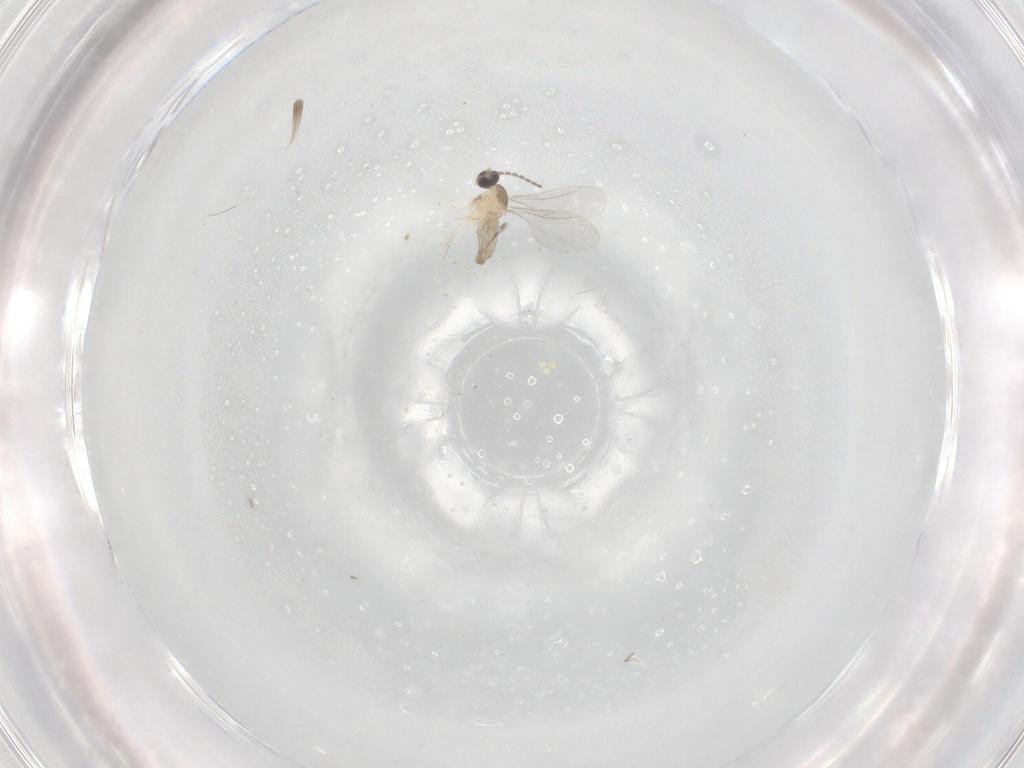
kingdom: Animalia
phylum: Arthropoda
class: Insecta
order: Diptera
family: Cecidomyiidae
